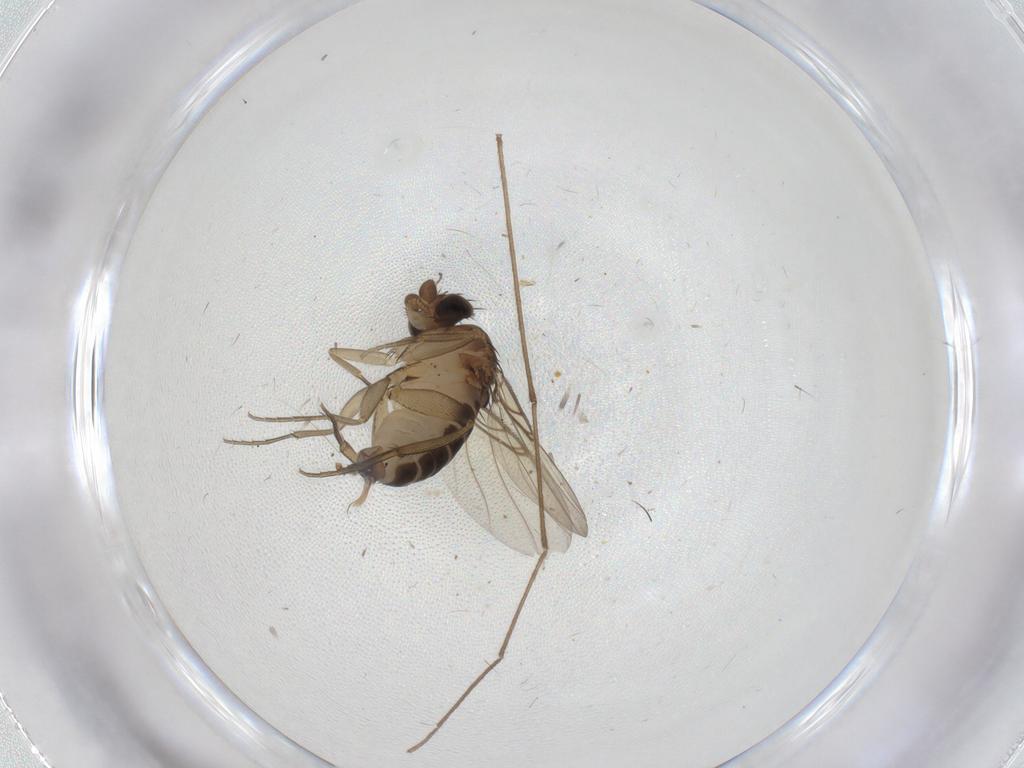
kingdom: Animalia
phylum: Arthropoda
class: Insecta
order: Diptera
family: Phoridae
